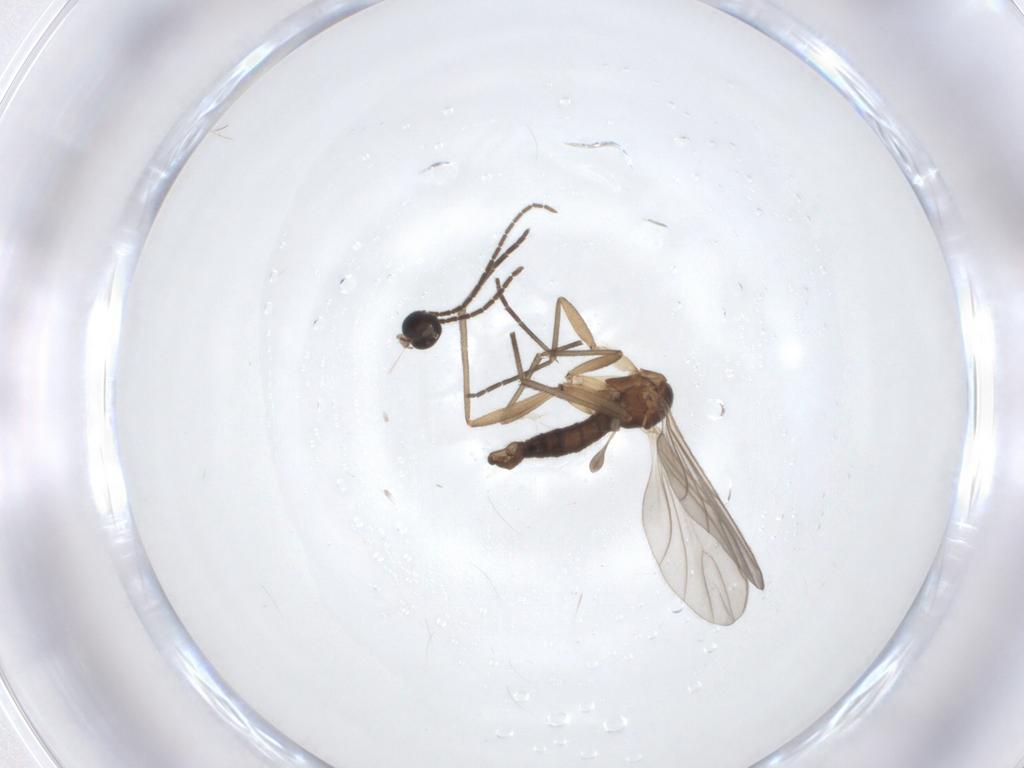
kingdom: Animalia
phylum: Arthropoda
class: Insecta
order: Diptera
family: Sciaridae
